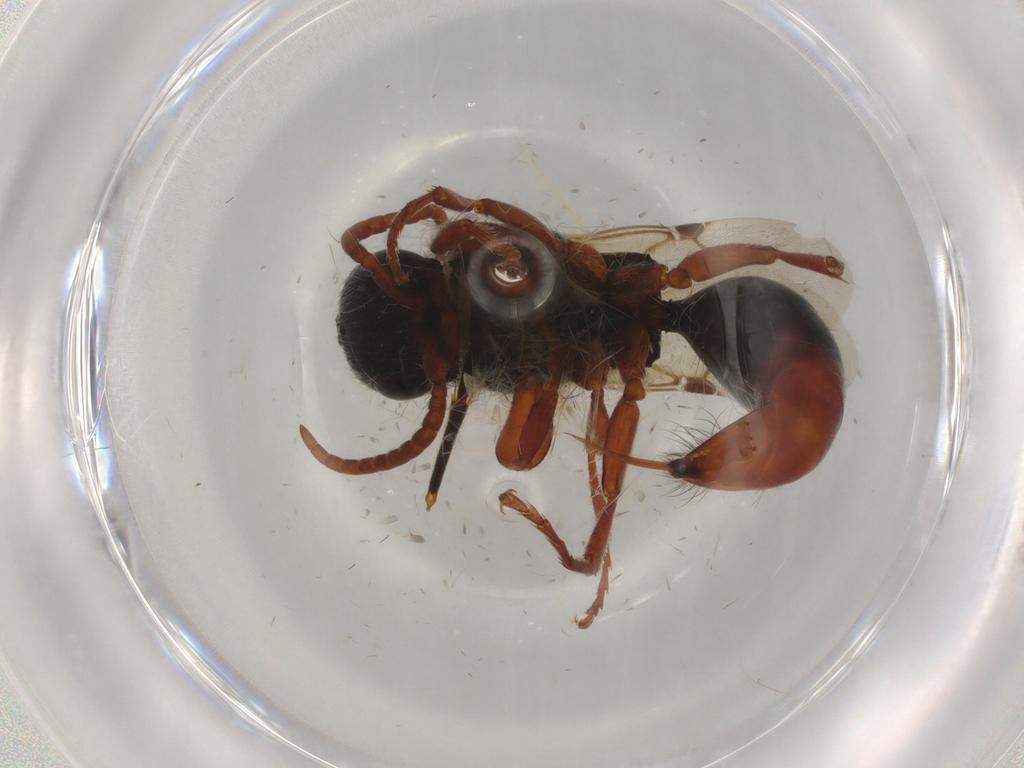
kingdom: Animalia
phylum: Arthropoda
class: Insecta
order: Hymenoptera
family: Bethylidae
